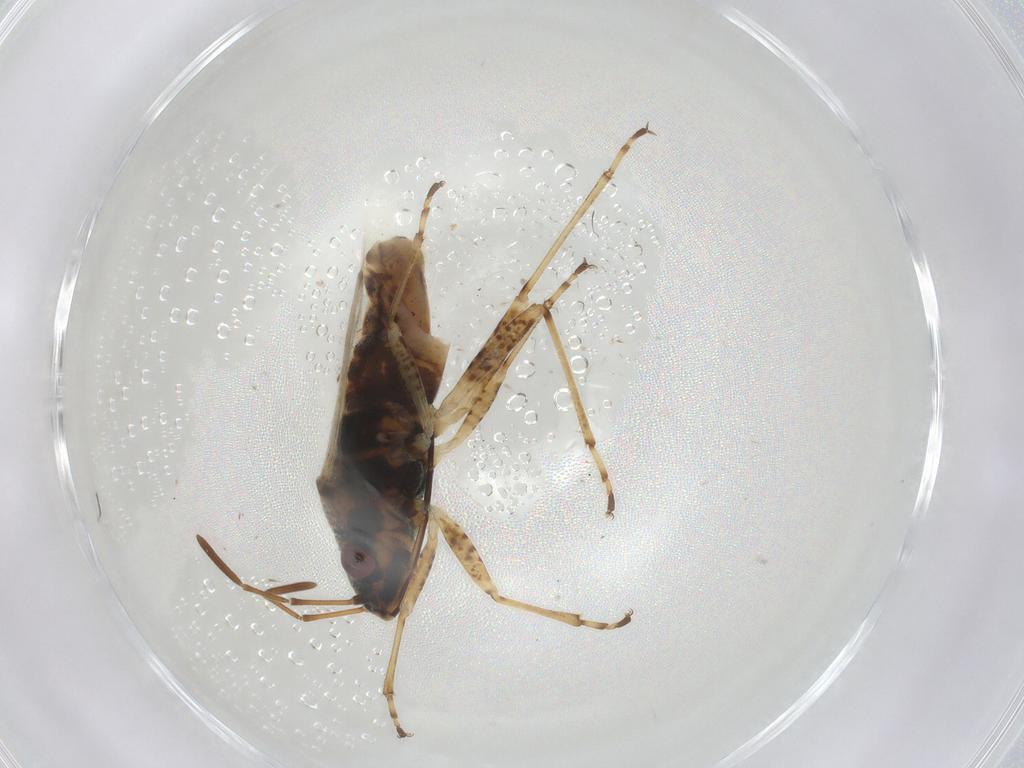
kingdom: Animalia
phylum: Arthropoda
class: Insecta
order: Hemiptera
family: Lygaeidae
